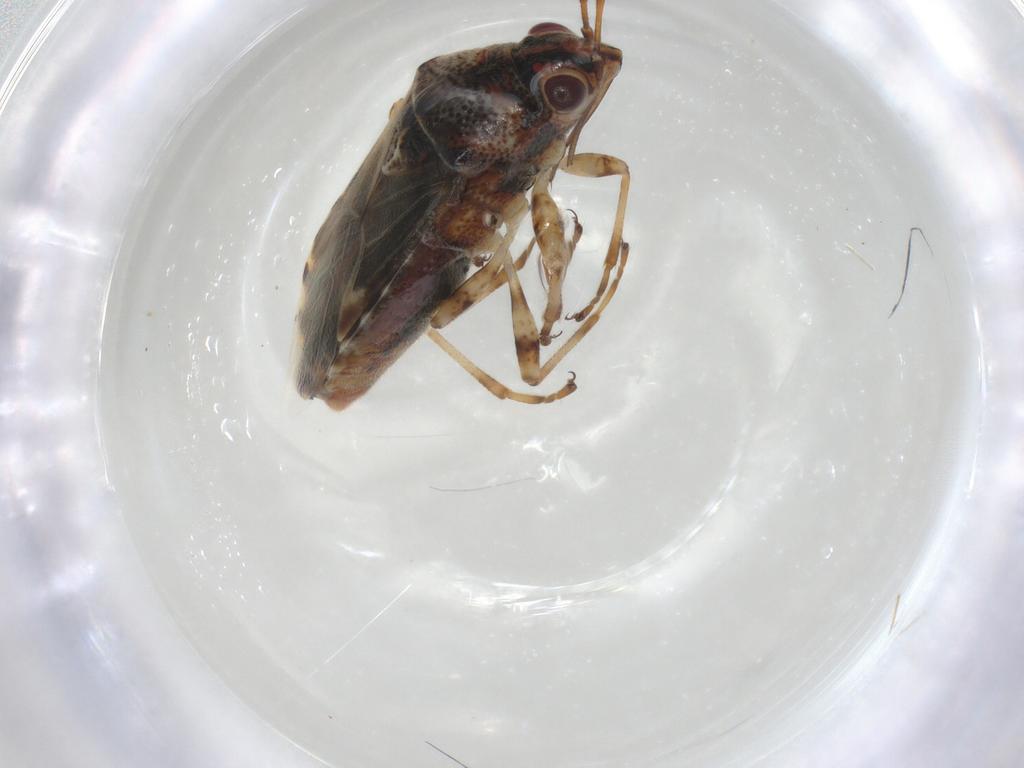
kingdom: Animalia
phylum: Arthropoda
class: Insecta
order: Hemiptera
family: Lygaeidae
